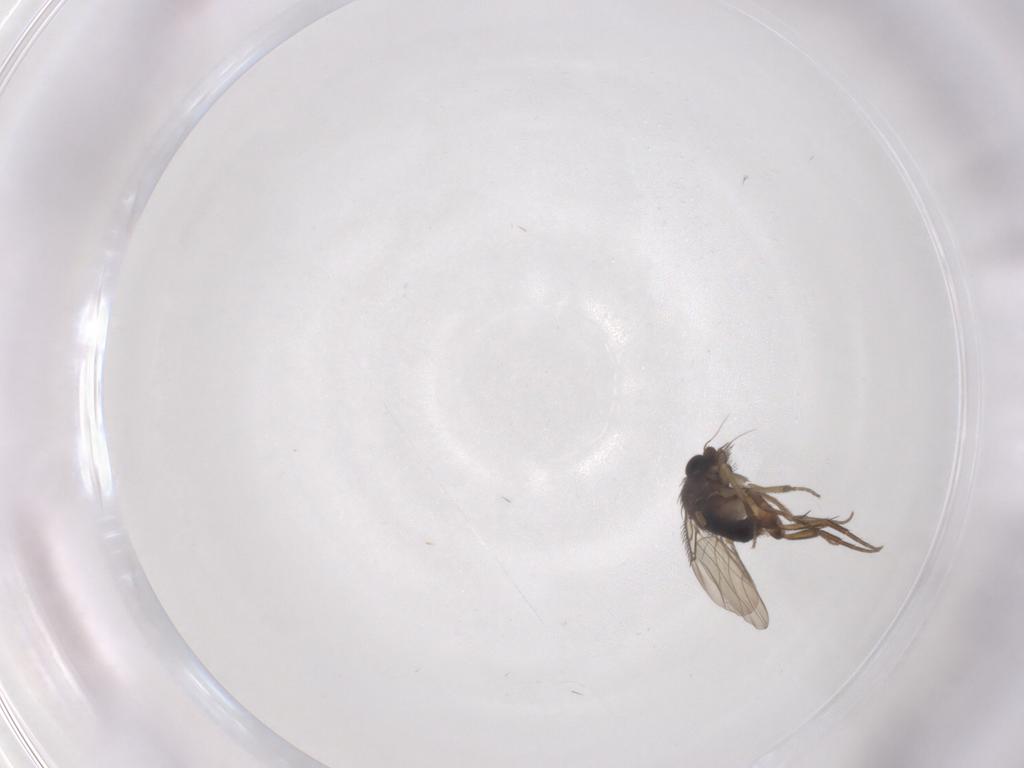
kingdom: Animalia
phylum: Arthropoda
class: Insecta
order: Diptera
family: Phoridae
